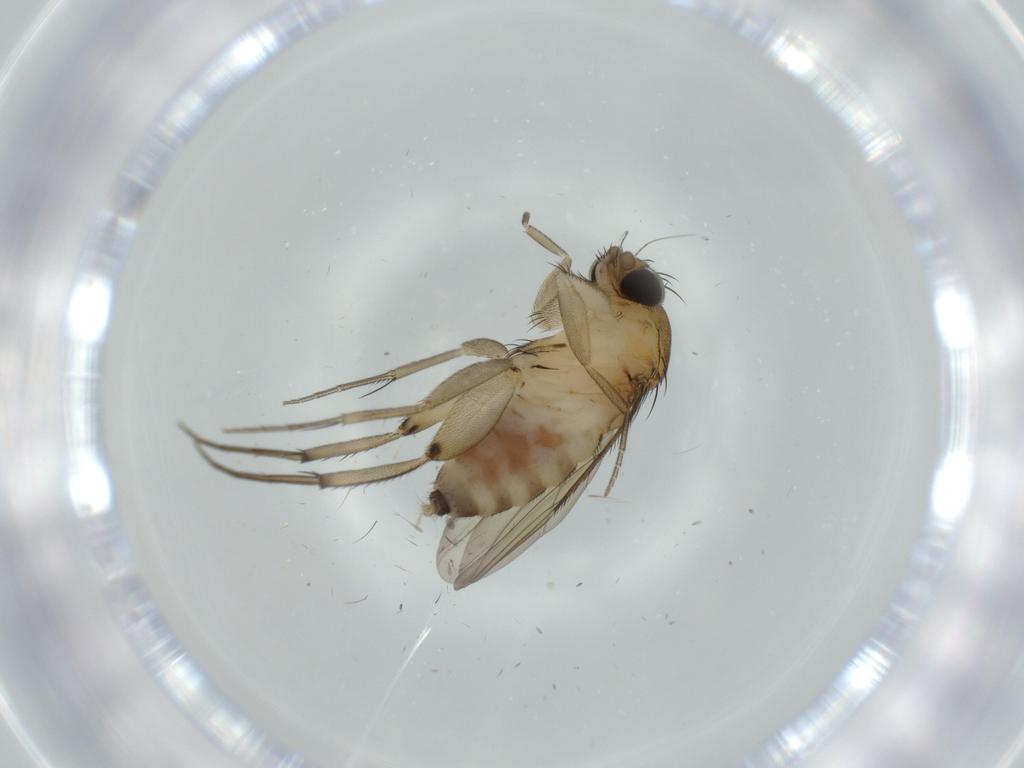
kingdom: Animalia
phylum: Arthropoda
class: Insecta
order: Diptera
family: Phoridae
